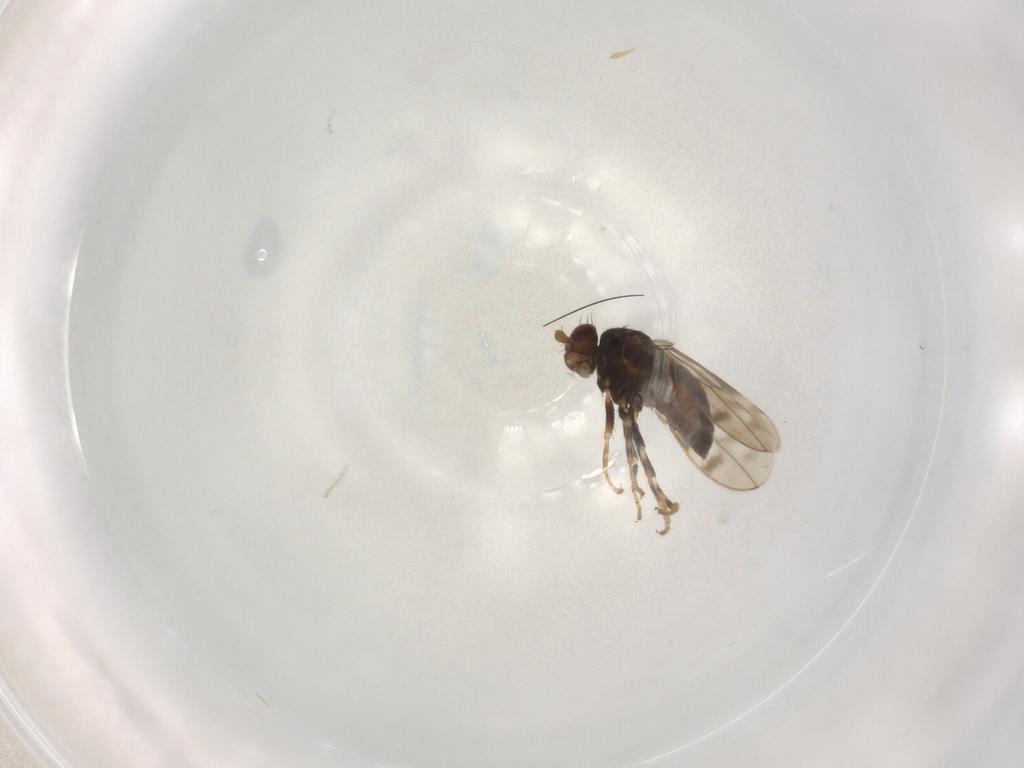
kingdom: Animalia
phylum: Arthropoda
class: Insecta
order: Diptera
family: Sphaeroceridae
